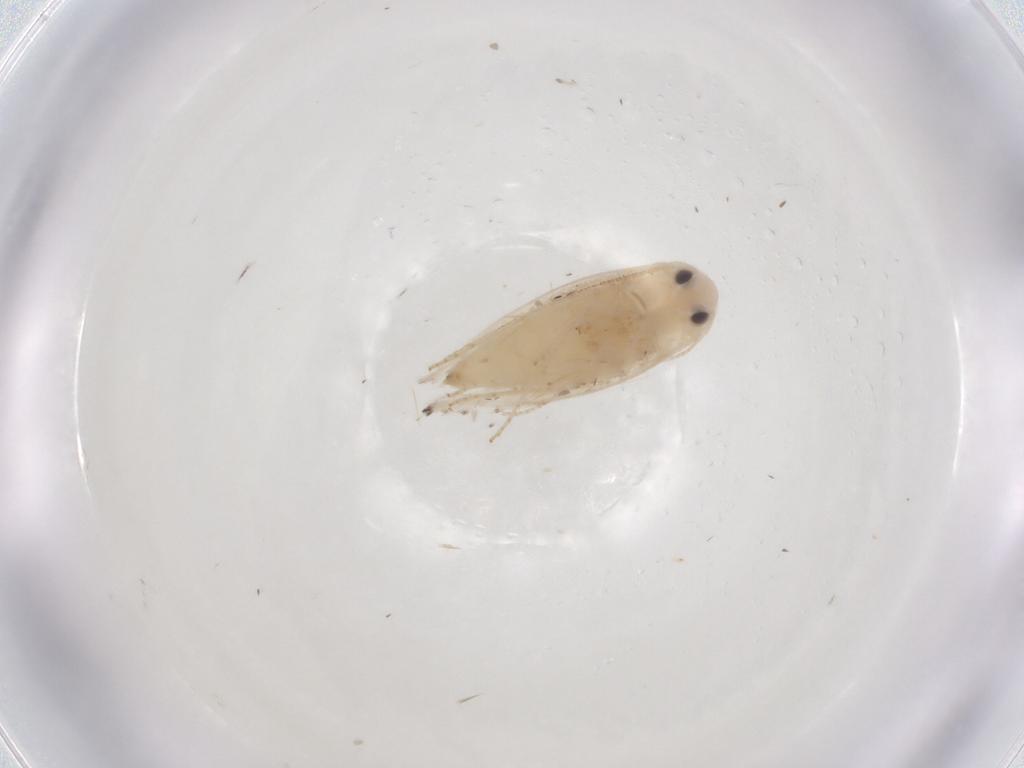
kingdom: Animalia
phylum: Arthropoda
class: Insecta
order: Lepidoptera
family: Gracillariidae
